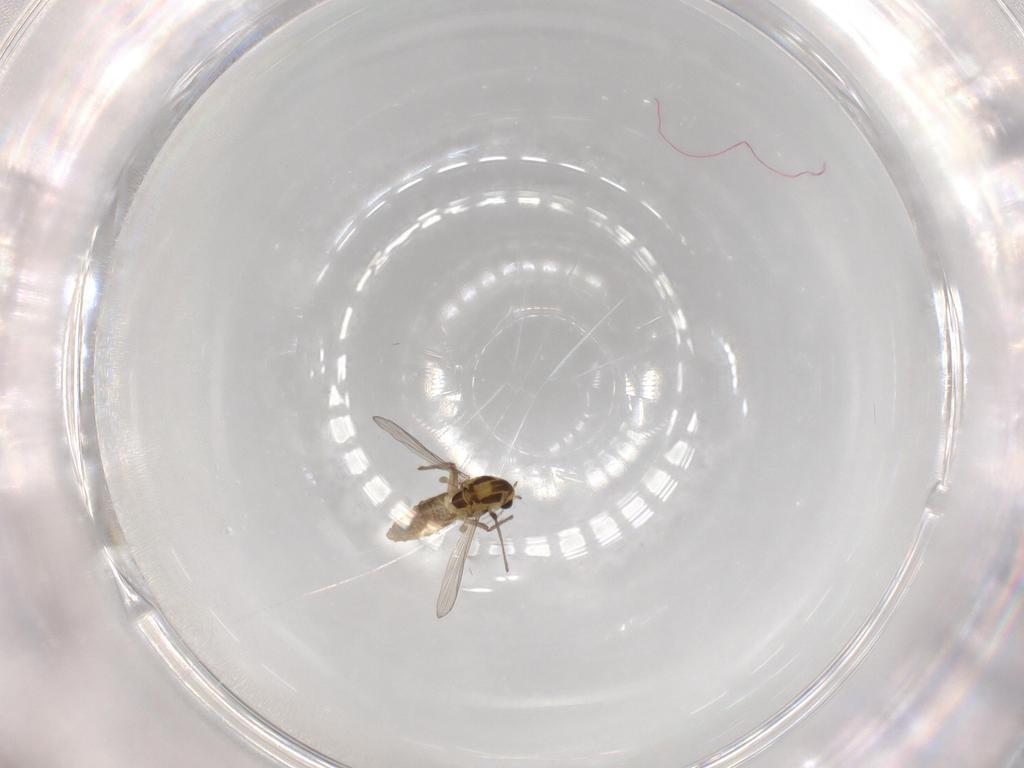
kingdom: Animalia
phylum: Arthropoda
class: Insecta
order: Diptera
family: Chironomidae
